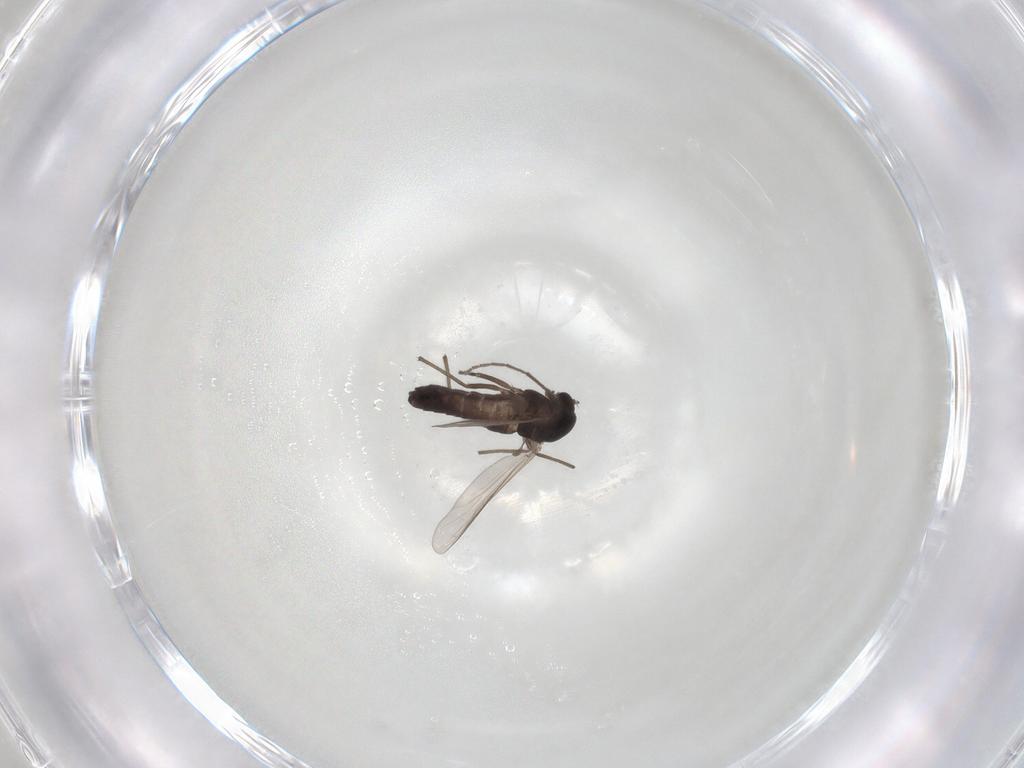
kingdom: Animalia
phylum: Arthropoda
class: Insecta
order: Diptera
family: Chironomidae
